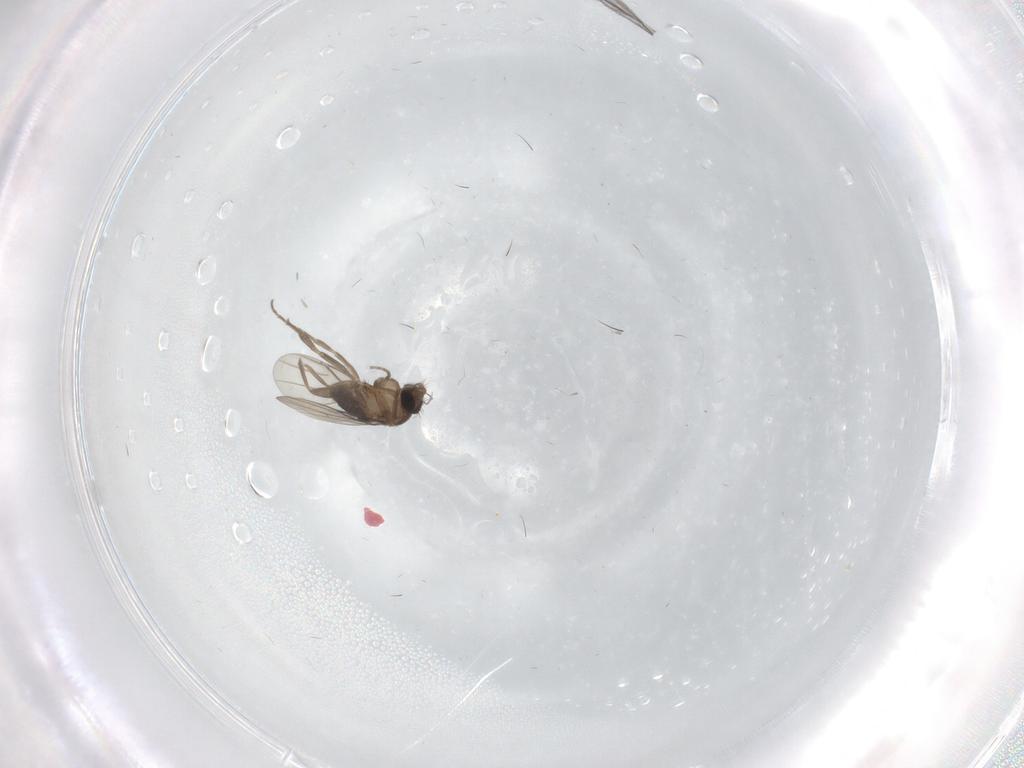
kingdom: Animalia
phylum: Arthropoda
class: Insecta
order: Diptera
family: Phoridae
